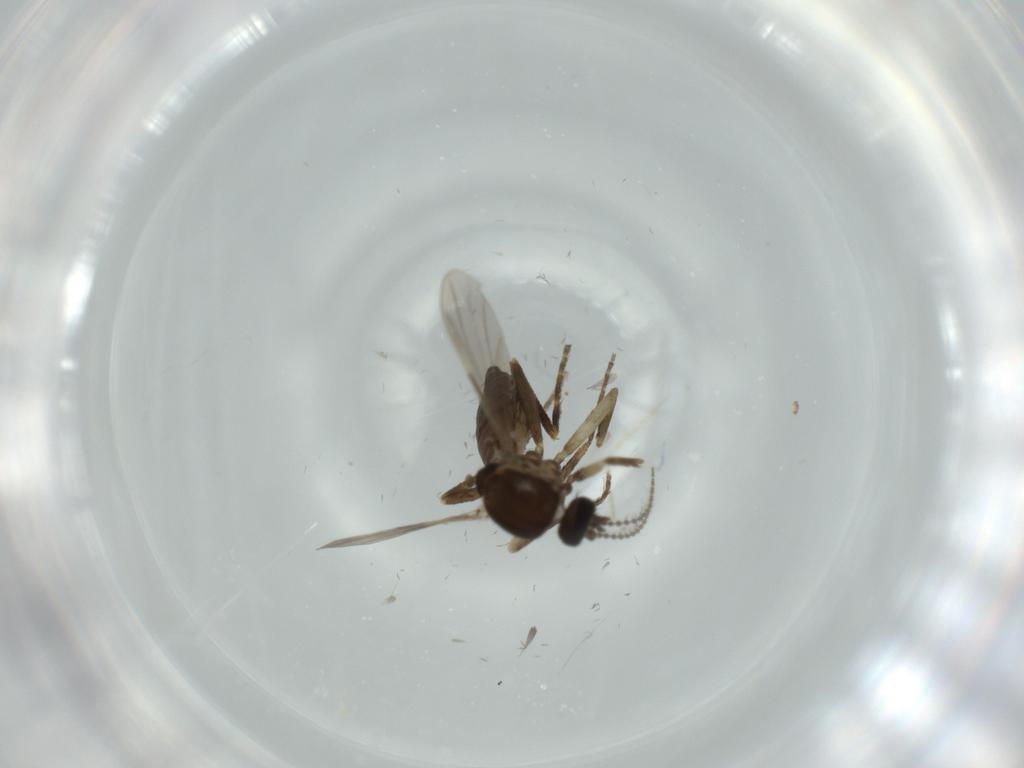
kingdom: Animalia
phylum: Arthropoda
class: Insecta
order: Diptera
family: Ceratopogonidae
